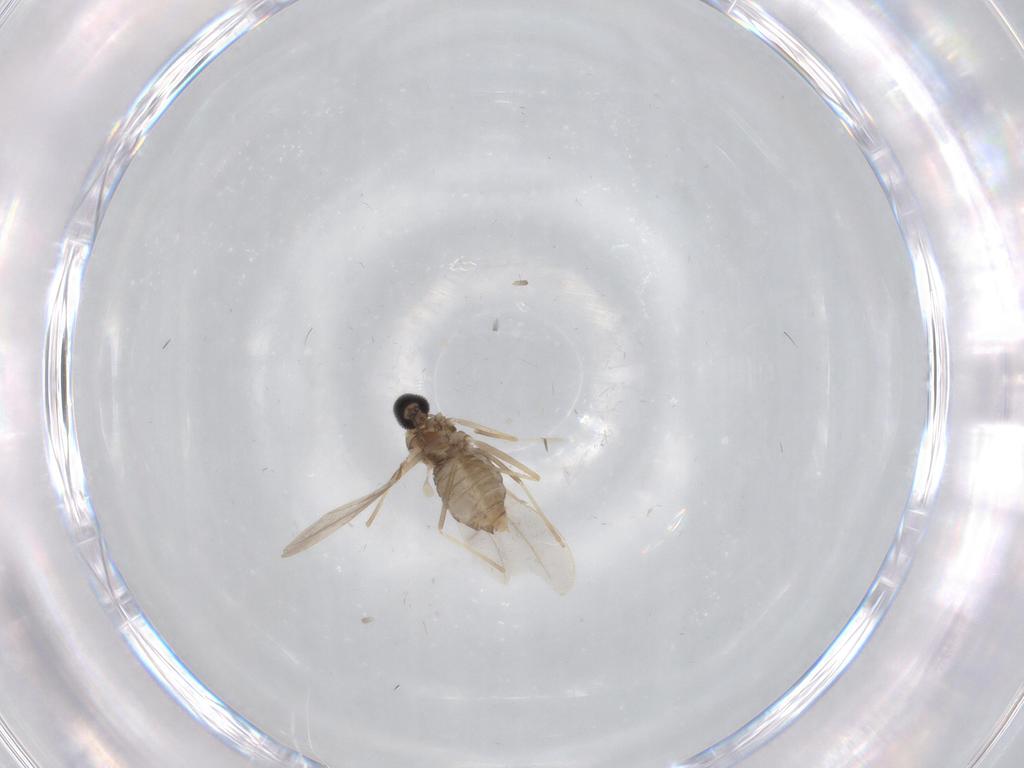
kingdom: Animalia
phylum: Arthropoda
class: Insecta
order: Diptera
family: Cecidomyiidae
